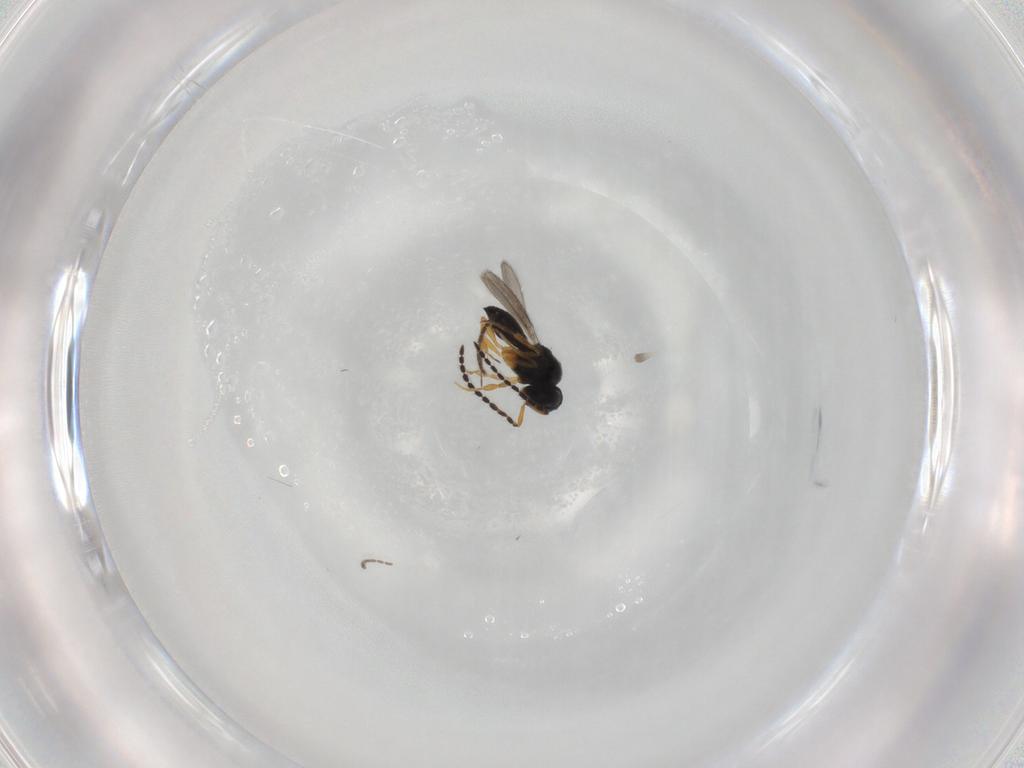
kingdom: Animalia
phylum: Arthropoda
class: Insecta
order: Hymenoptera
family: Scelionidae
